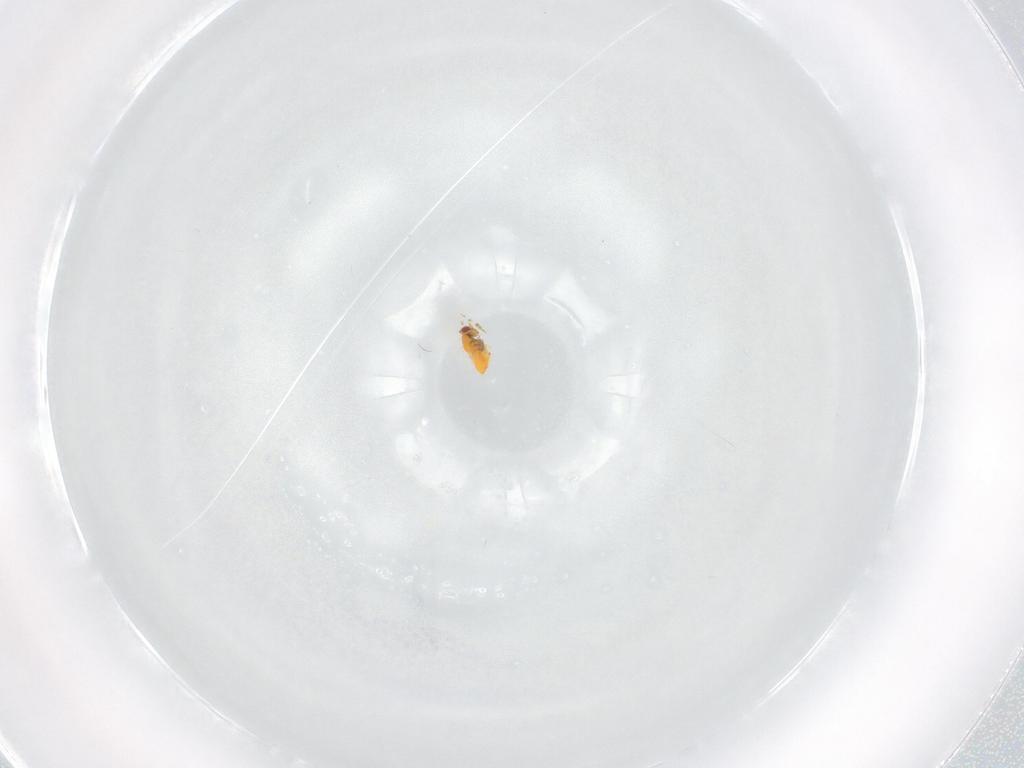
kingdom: Animalia
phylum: Arthropoda
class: Insecta
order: Hymenoptera
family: Trichogrammatidae
